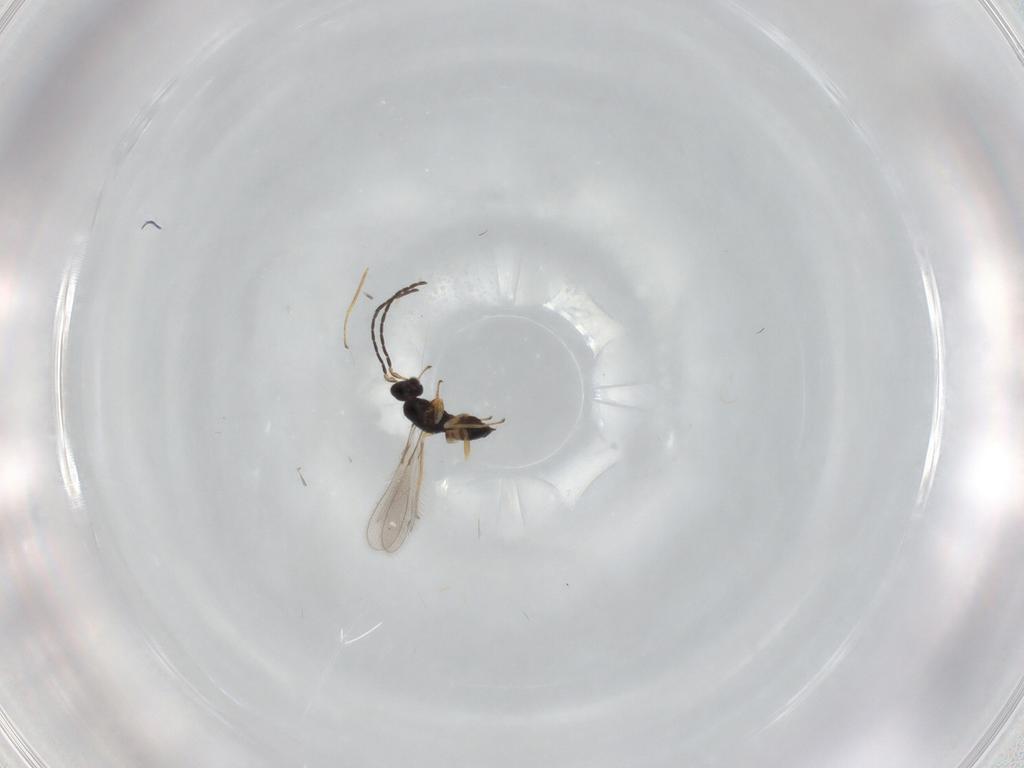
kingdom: Animalia
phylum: Arthropoda
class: Insecta
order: Hymenoptera
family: Mymaridae
